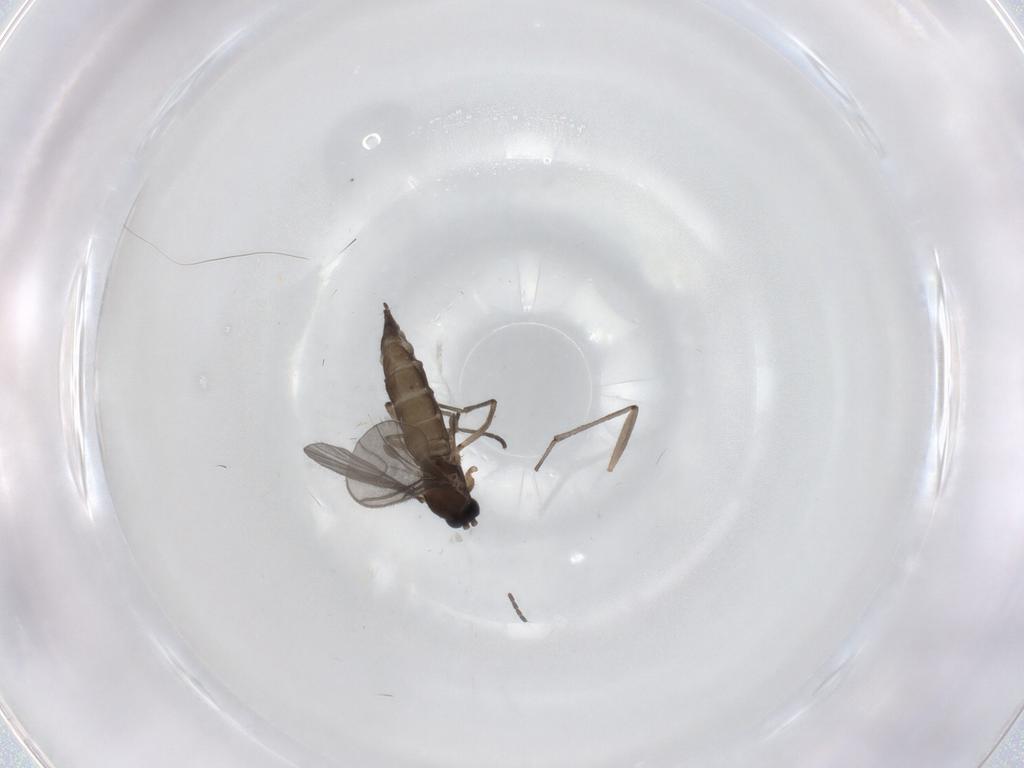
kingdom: Animalia
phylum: Arthropoda
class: Insecta
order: Diptera
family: Sciaridae
